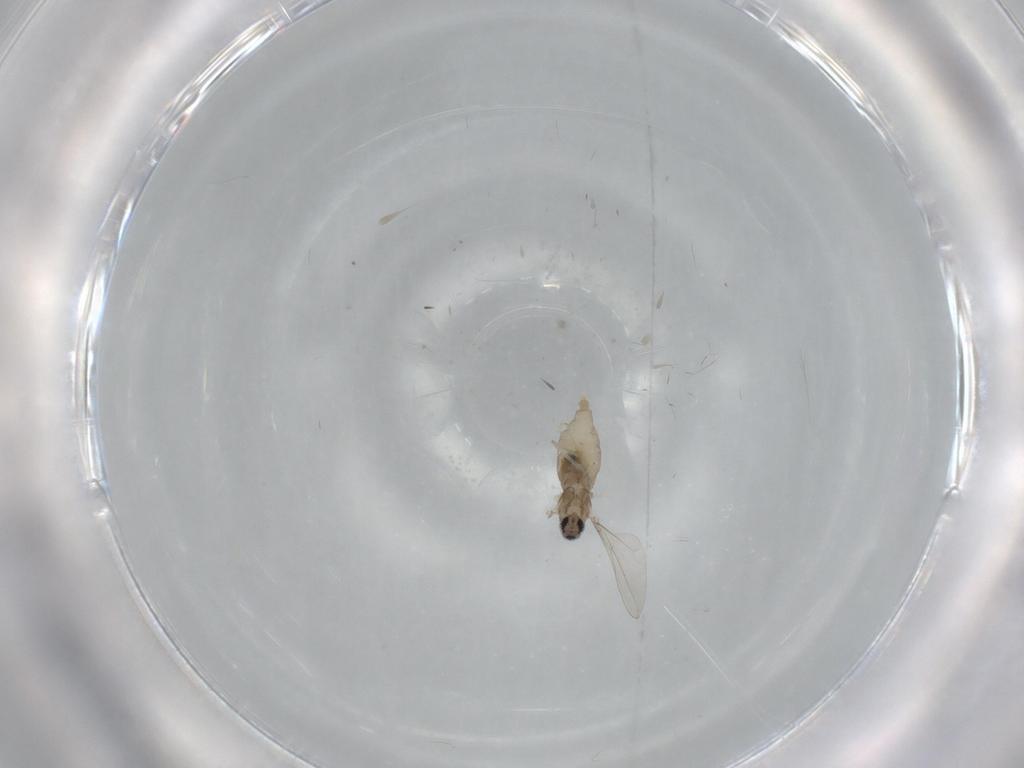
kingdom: Animalia
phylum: Arthropoda
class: Insecta
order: Diptera
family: Cecidomyiidae
